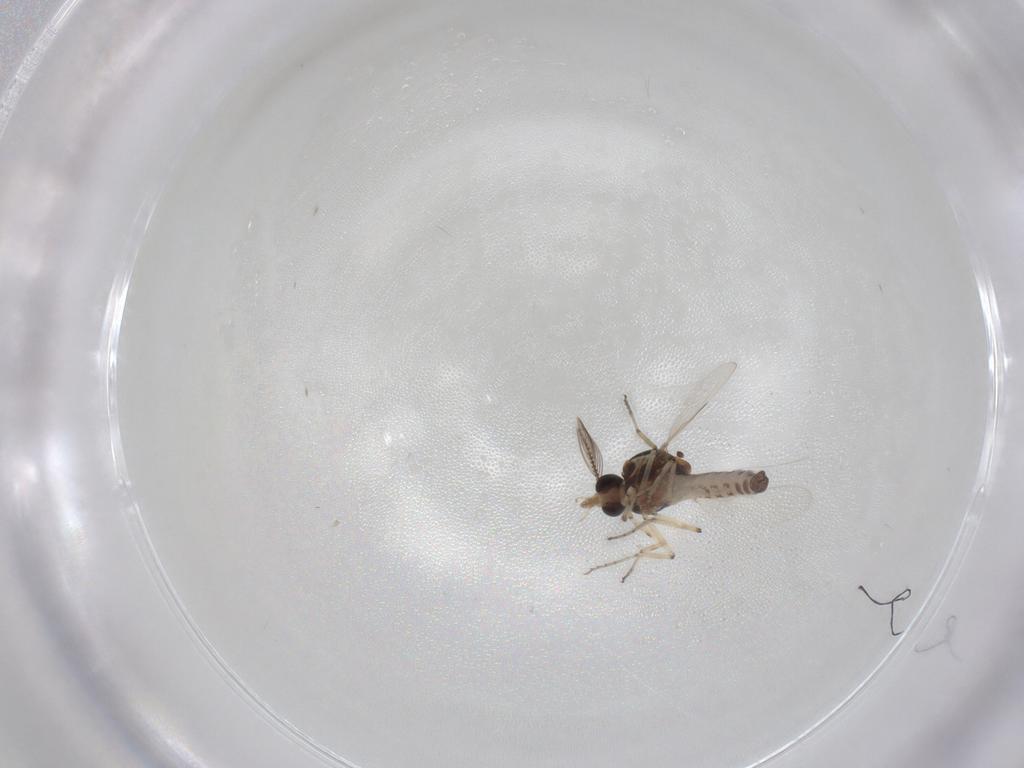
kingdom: Animalia
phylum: Arthropoda
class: Insecta
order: Diptera
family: Ceratopogonidae
